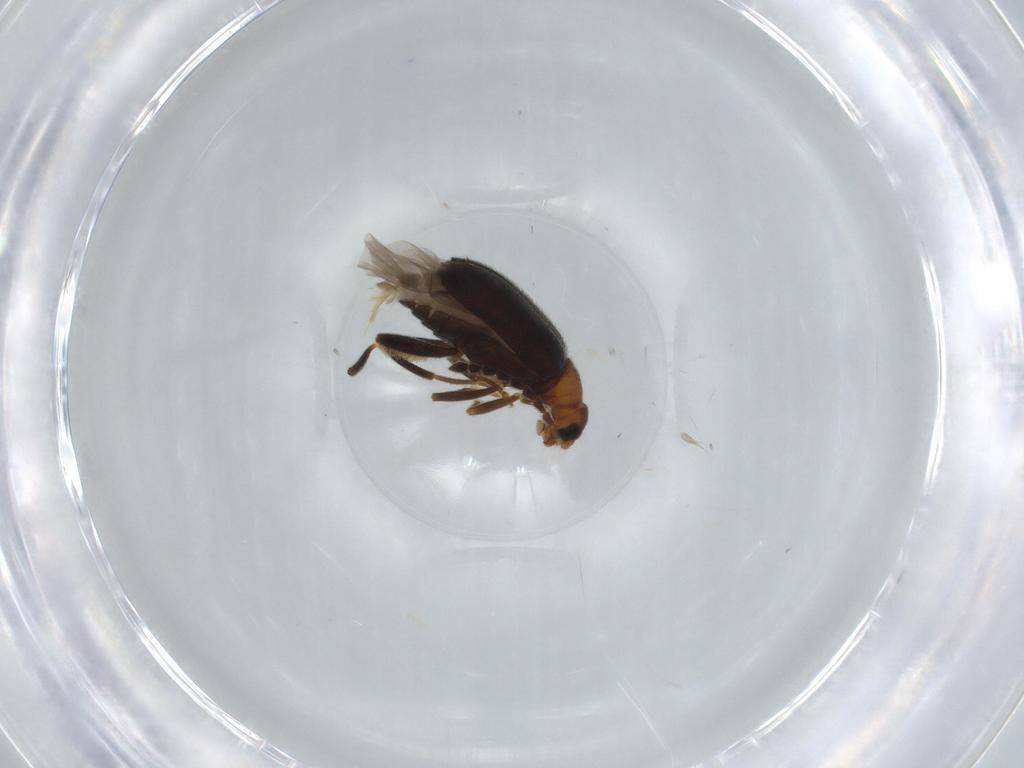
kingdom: Animalia
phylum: Arthropoda
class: Insecta
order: Coleoptera
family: Aderidae
